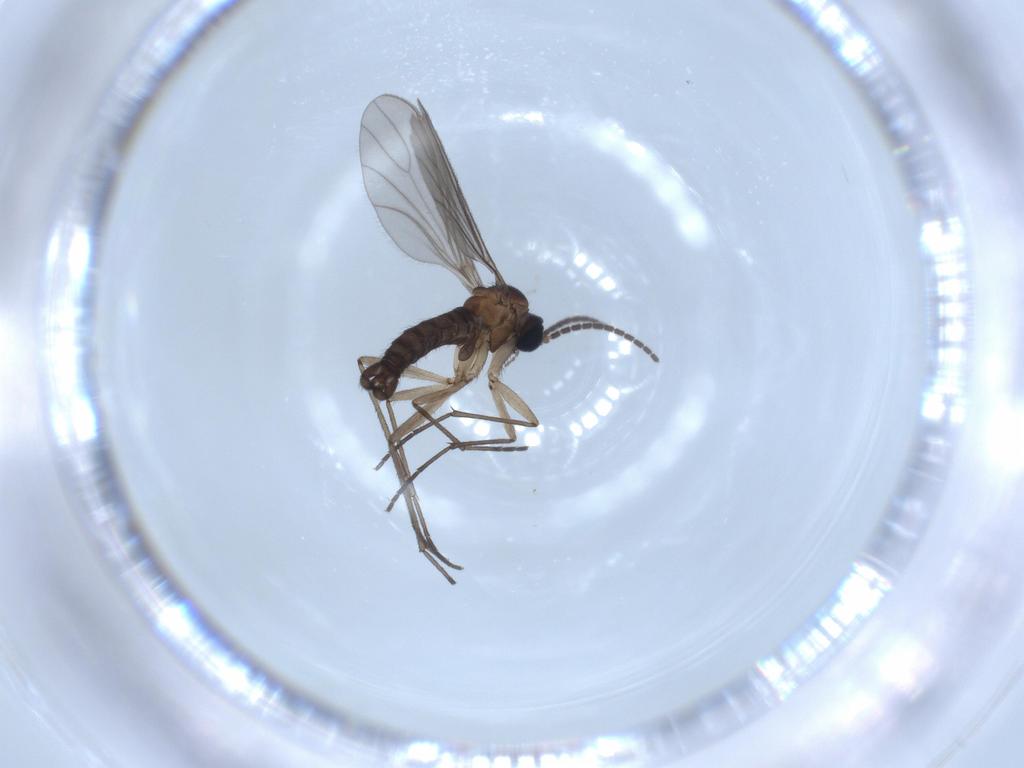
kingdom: Animalia
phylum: Arthropoda
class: Insecta
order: Diptera
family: Sciaridae
